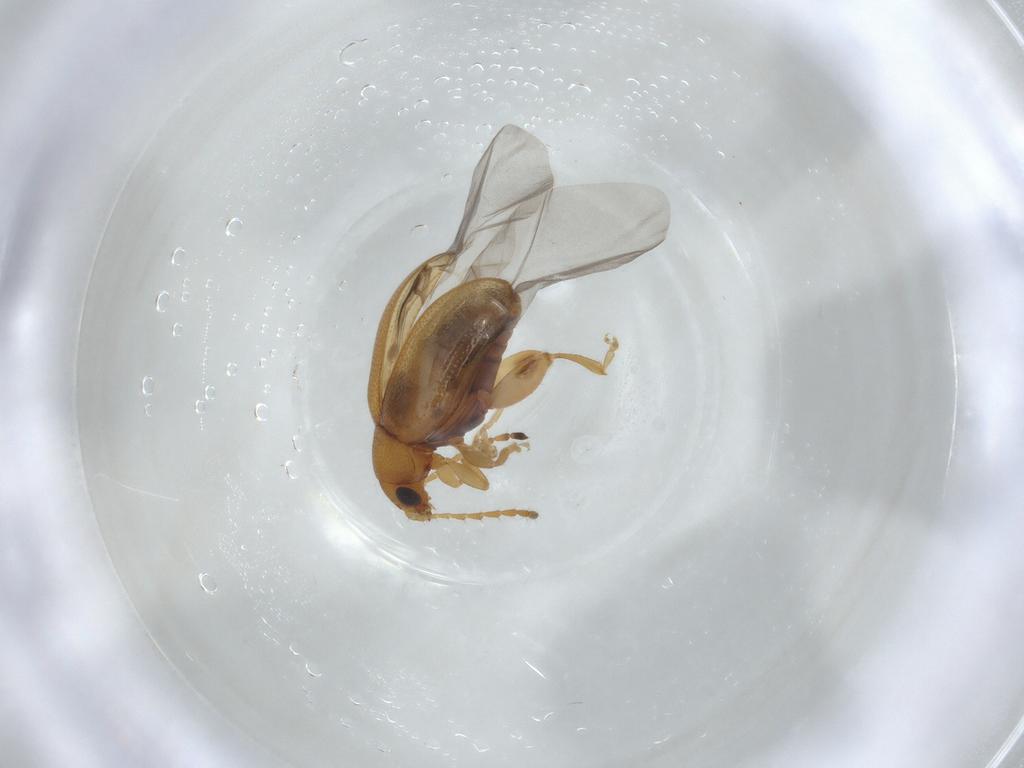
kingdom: Animalia
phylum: Arthropoda
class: Insecta
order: Coleoptera
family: Chrysomelidae
